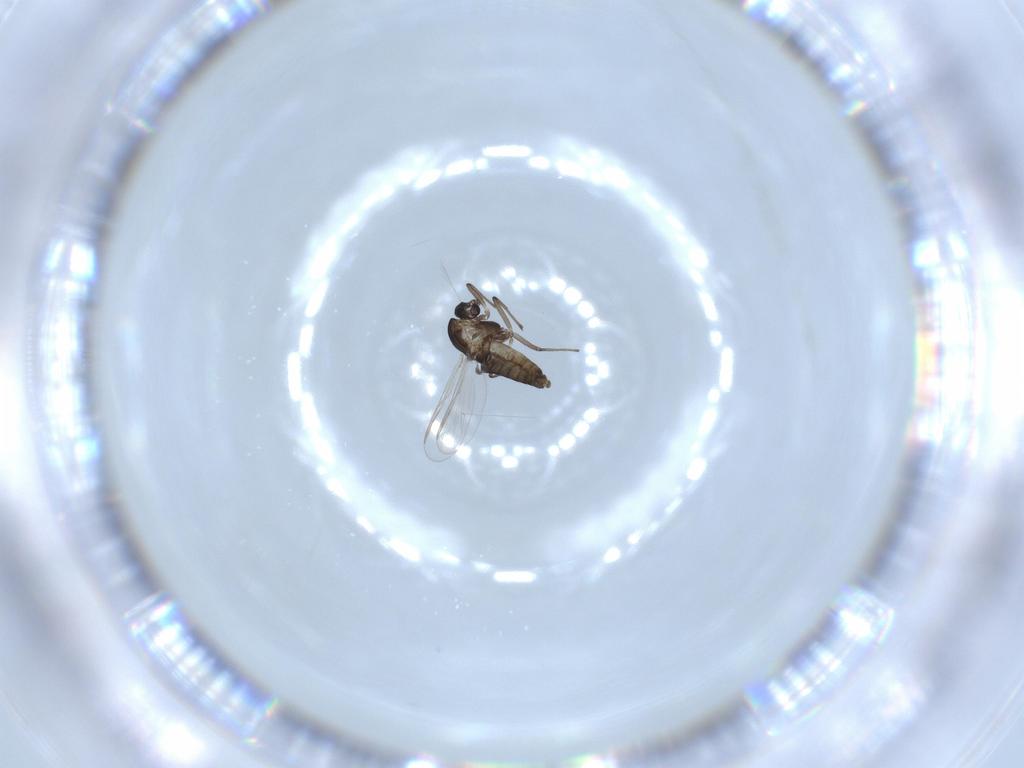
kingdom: Animalia
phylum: Arthropoda
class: Insecta
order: Diptera
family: Chironomidae
